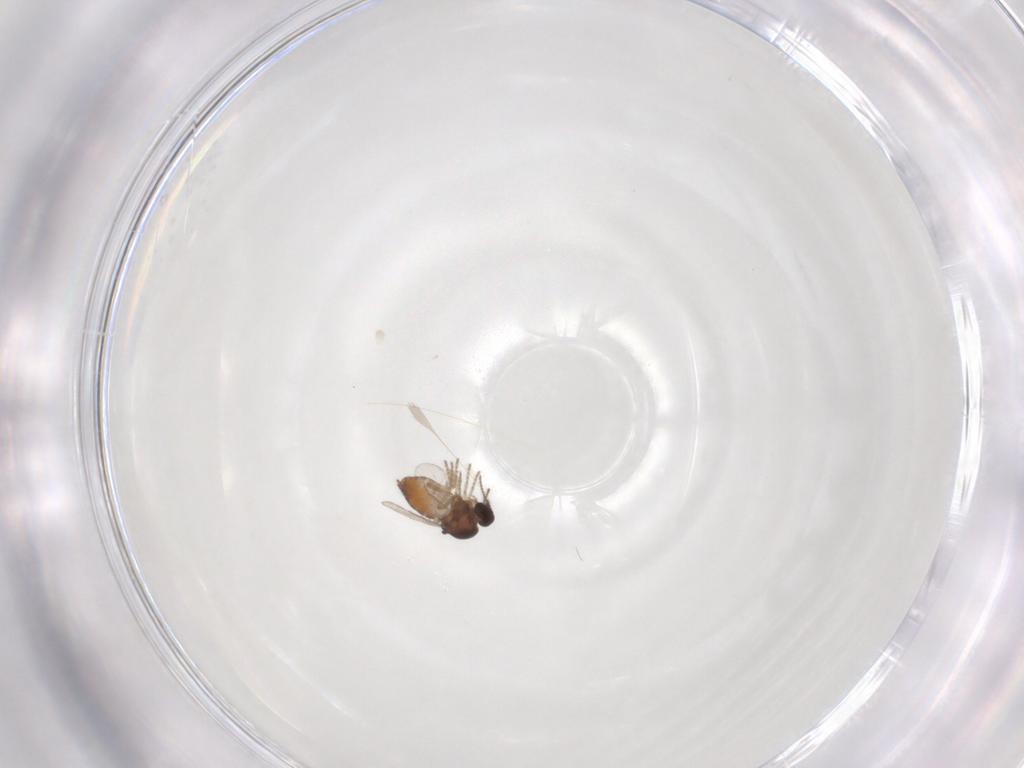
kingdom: Animalia
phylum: Arthropoda
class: Insecta
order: Diptera
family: Ceratopogonidae
